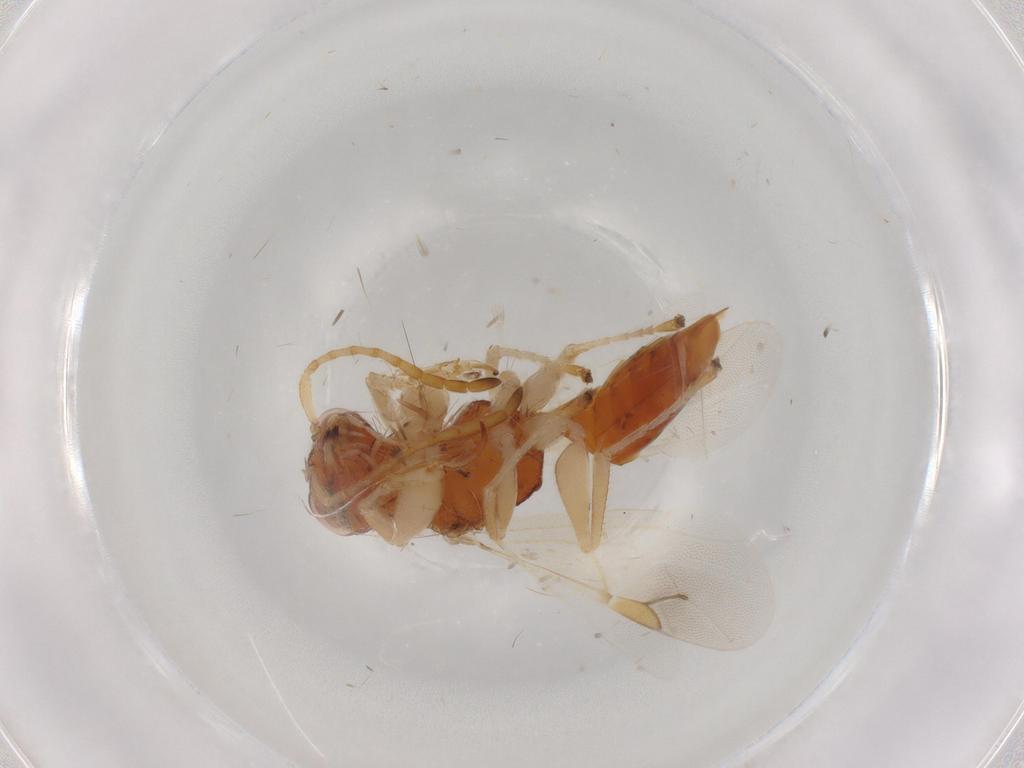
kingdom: Animalia
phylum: Arthropoda
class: Insecta
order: Hymenoptera
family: Dryinidae
